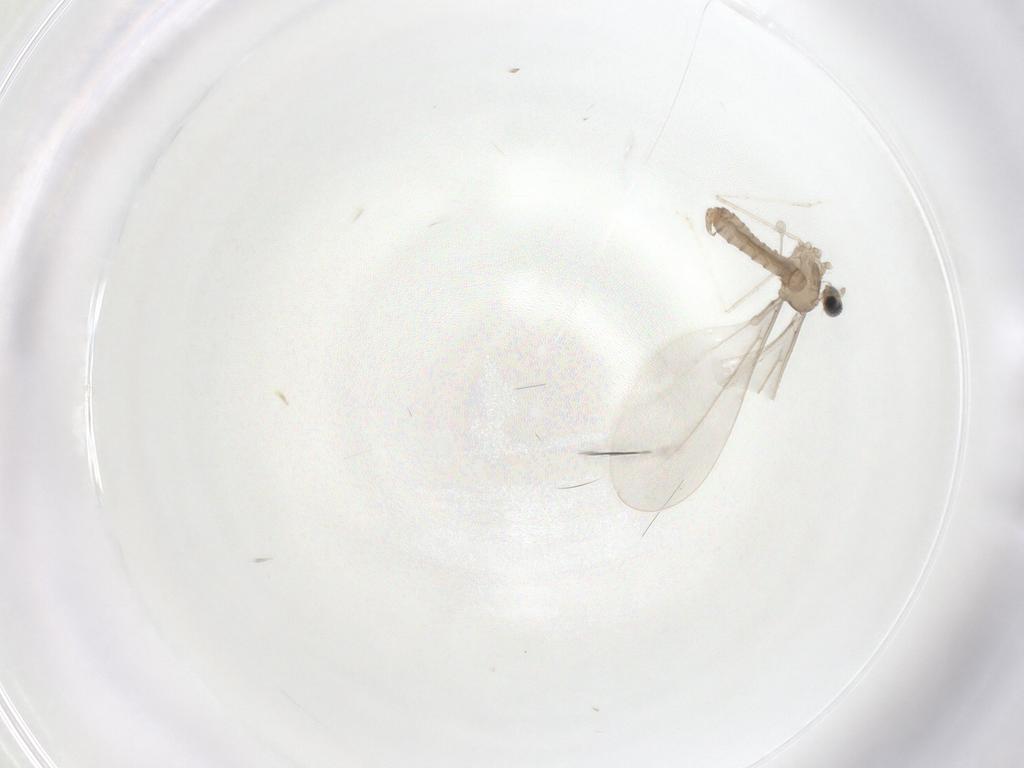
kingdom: Animalia
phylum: Arthropoda
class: Insecta
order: Diptera
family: Cecidomyiidae
